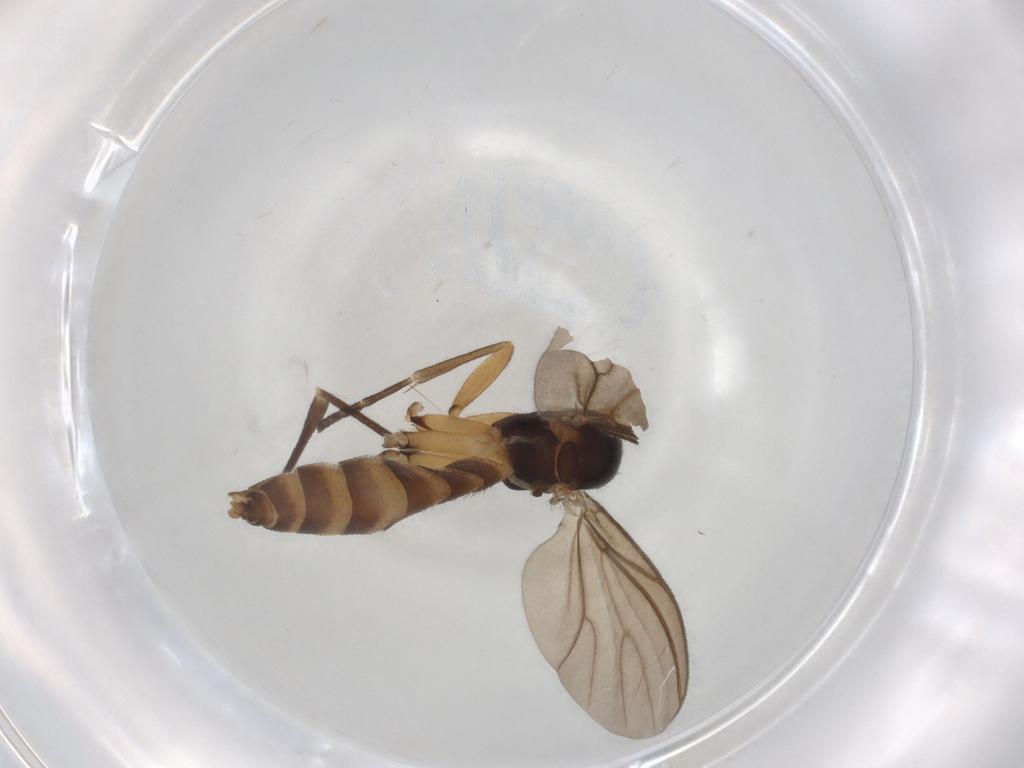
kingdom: Animalia
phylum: Arthropoda
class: Insecta
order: Diptera
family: Mycetophilidae
